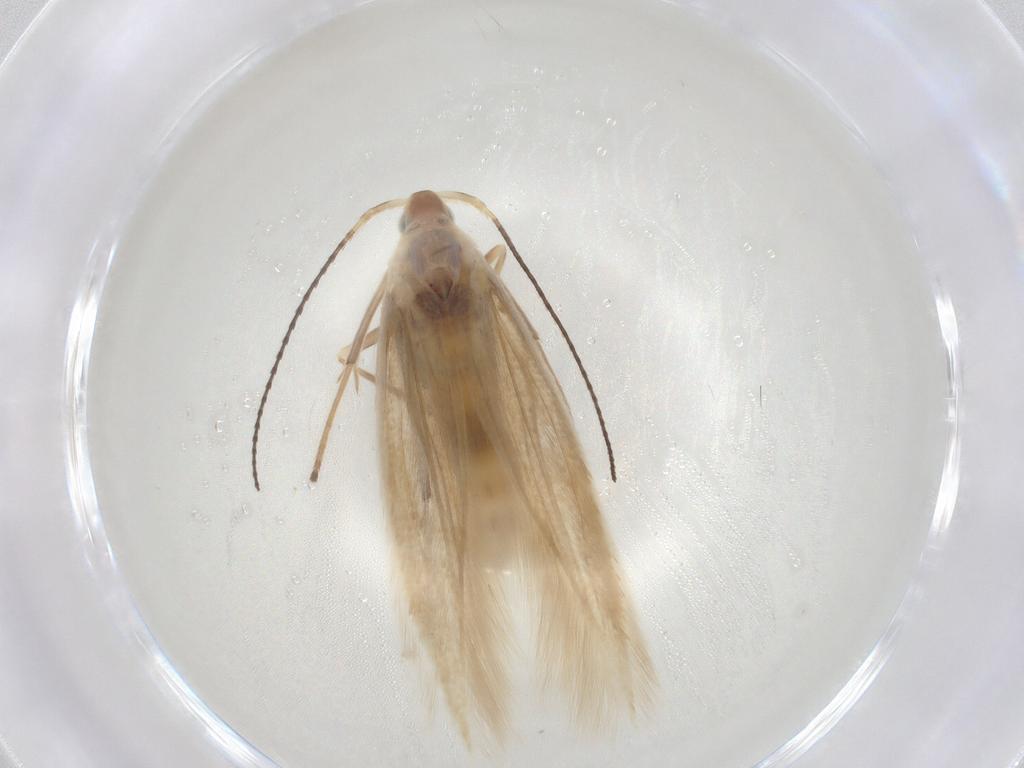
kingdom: Animalia
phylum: Arthropoda
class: Insecta
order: Lepidoptera
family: Coleophoridae
